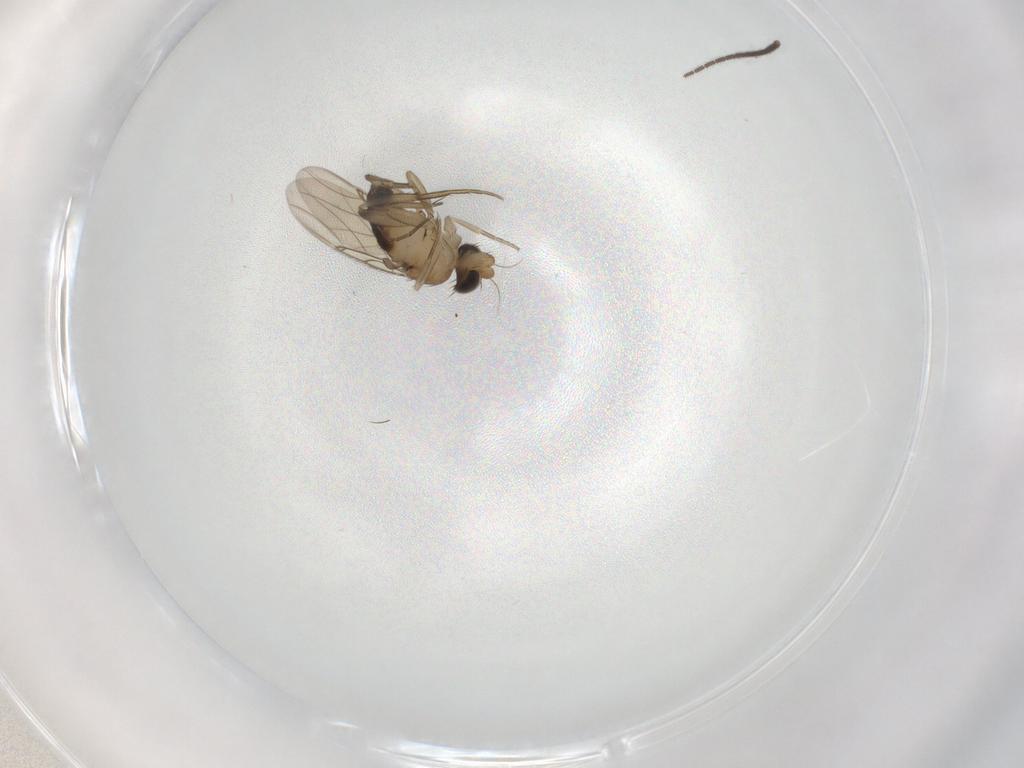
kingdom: Animalia
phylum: Arthropoda
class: Insecta
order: Diptera
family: Phoridae
